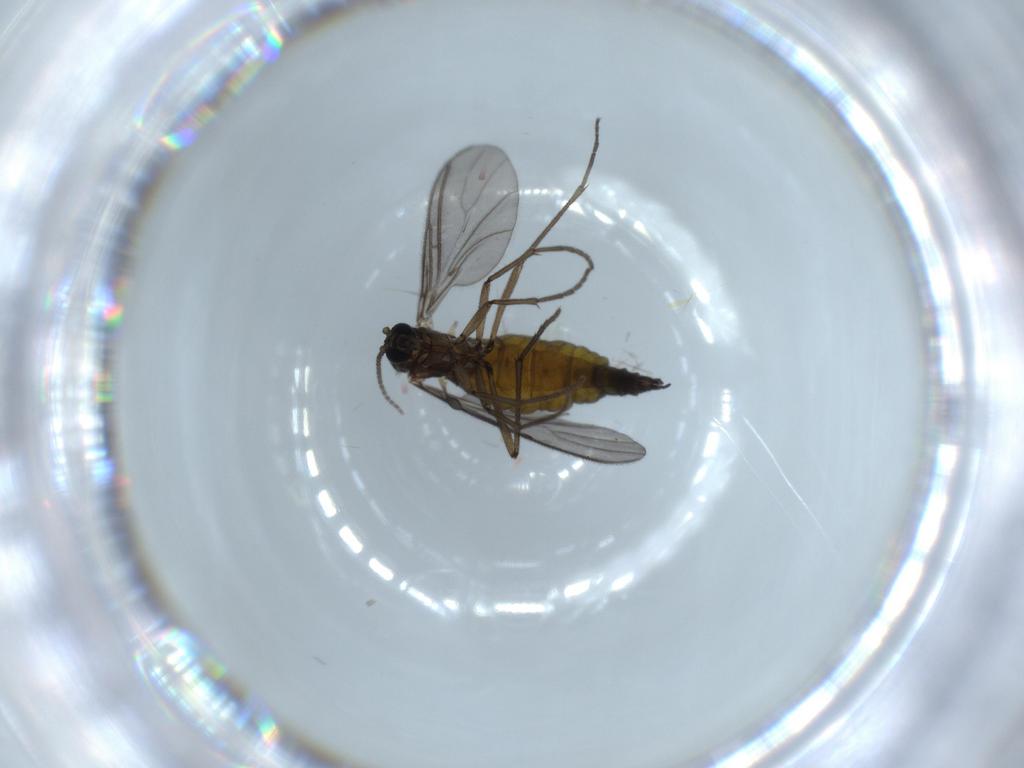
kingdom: Animalia
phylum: Arthropoda
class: Insecta
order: Diptera
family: Sciaridae
